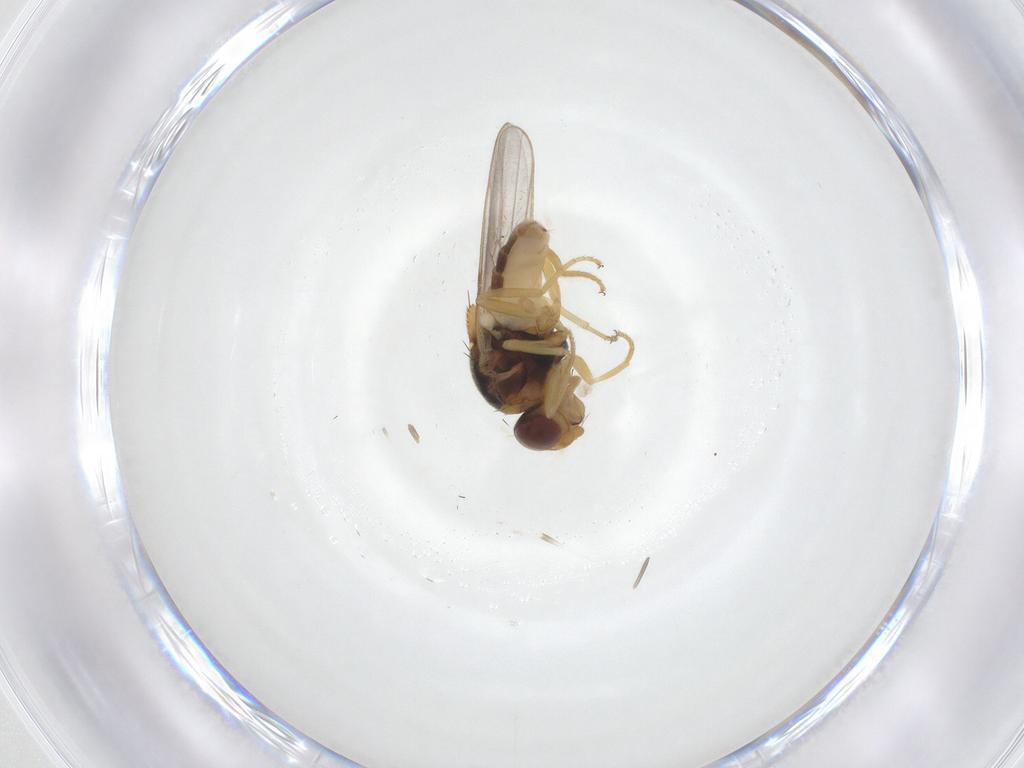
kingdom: Animalia
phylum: Arthropoda
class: Insecta
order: Diptera
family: Chloropidae
